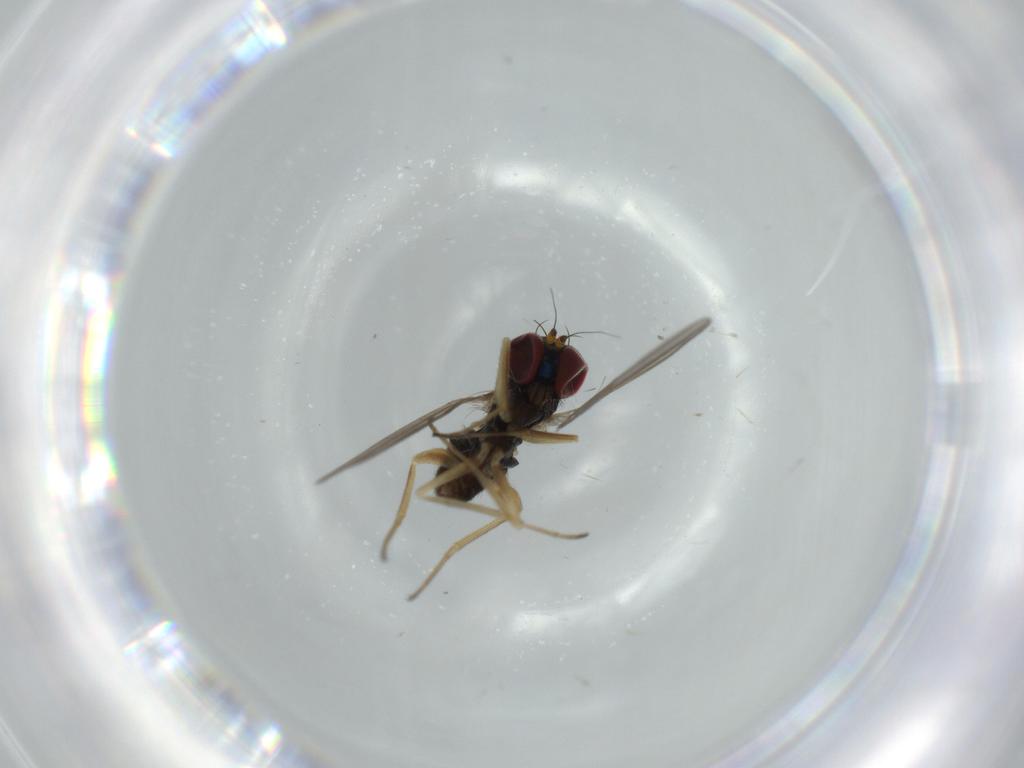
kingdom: Animalia
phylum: Arthropoda
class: Insecta
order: Diptera
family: Dolichopodidae
